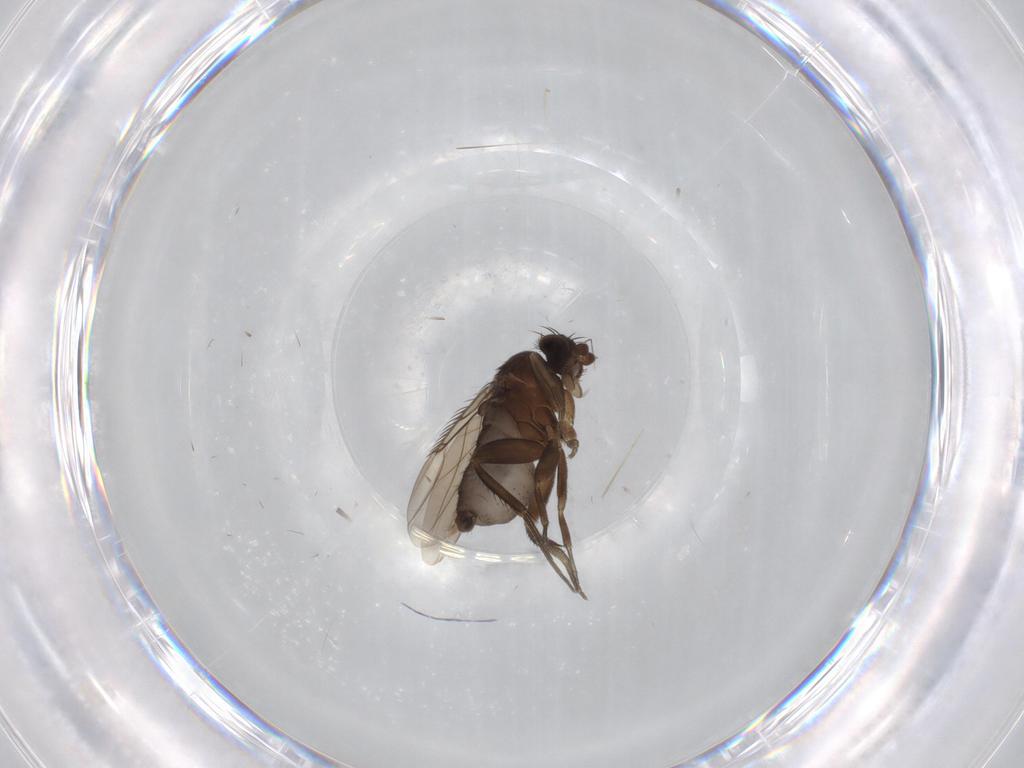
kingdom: Animalia
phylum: Arthropoda
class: Insecta
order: Diptera
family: Phoridae
